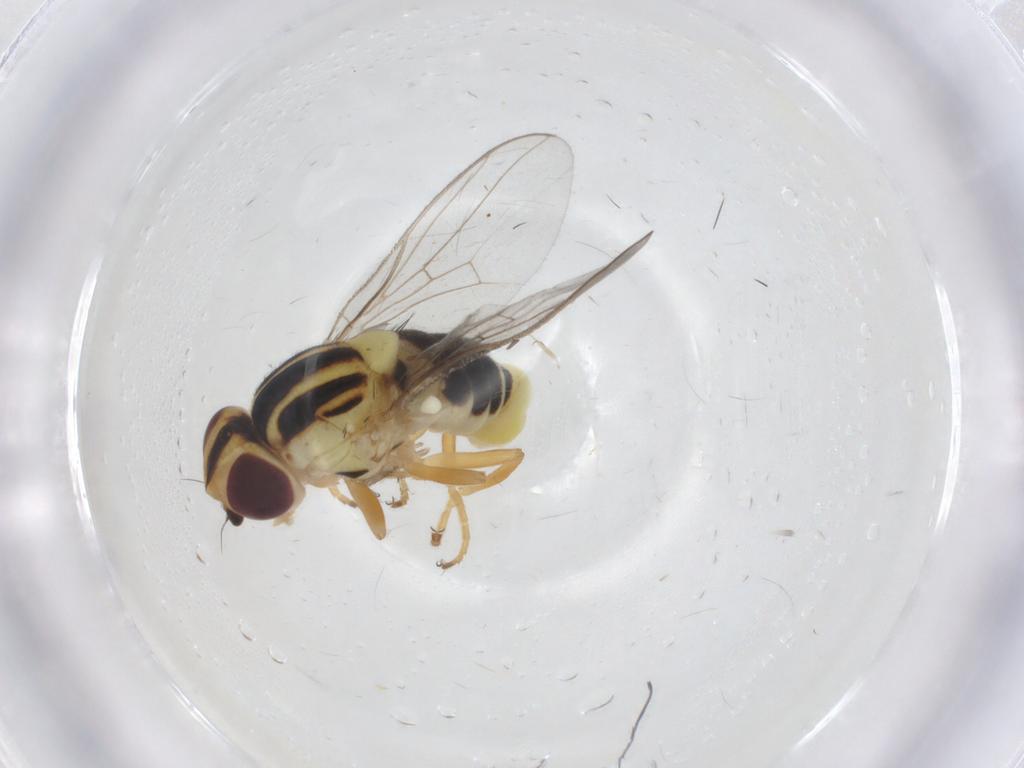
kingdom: Animalia
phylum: Arthropoda
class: Insecta
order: Diptera
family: Chloropidae
